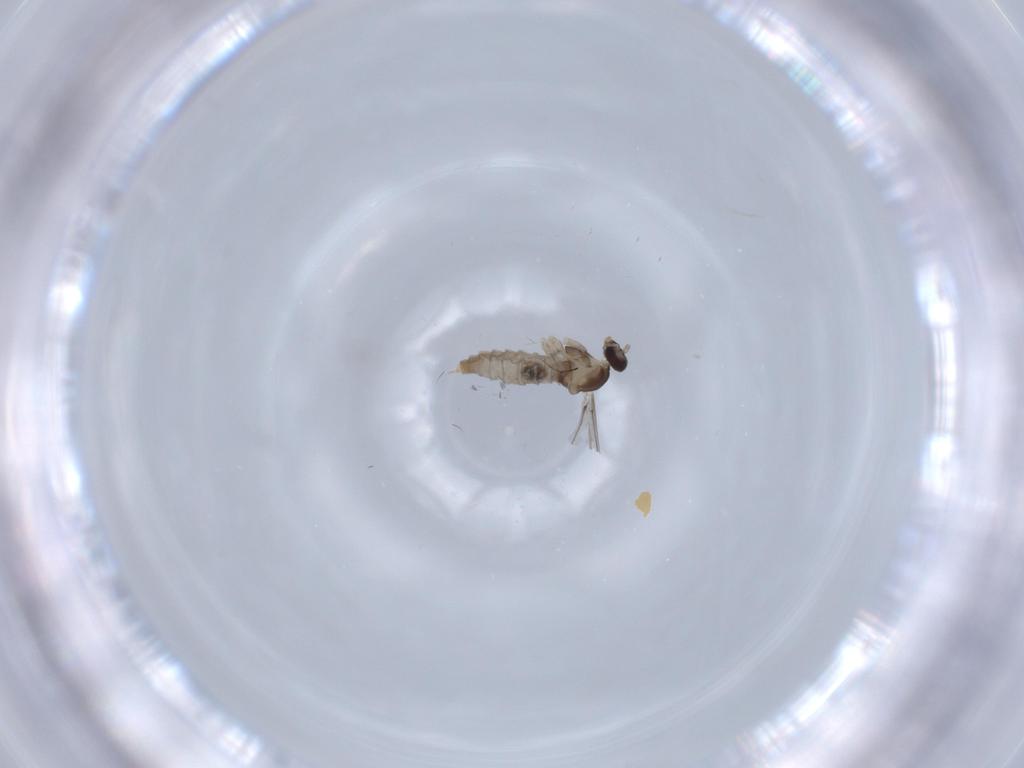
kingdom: Animalia
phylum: Arthropoda
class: Insecta
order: Diptera
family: Cecidomyiidae
